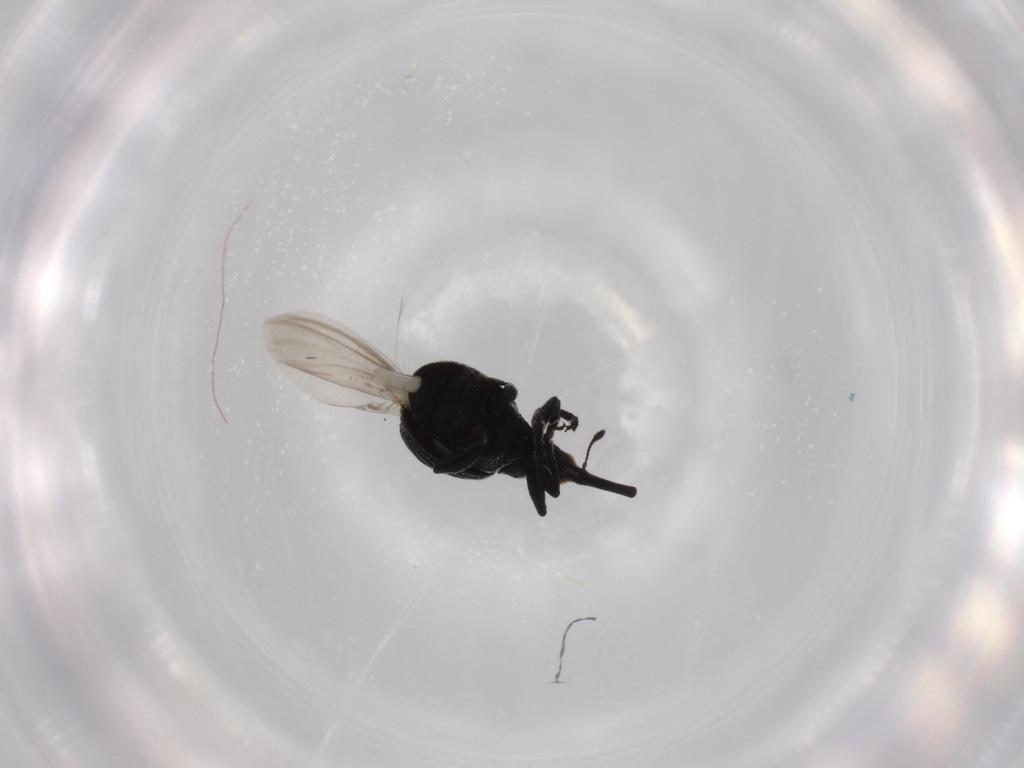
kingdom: Animalia
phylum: Arthropoda
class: Insecta
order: Coleoptera
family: Brentidae
